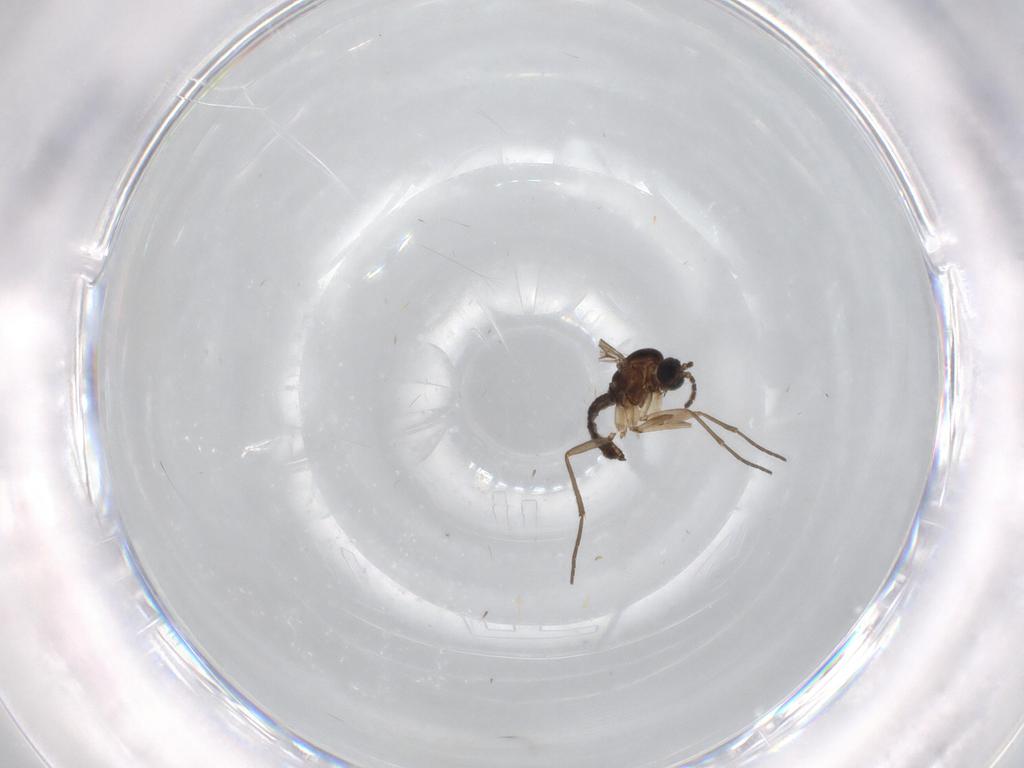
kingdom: Animalia
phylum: Arthropoda
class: Insecta
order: Diptera
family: Sciaridae
